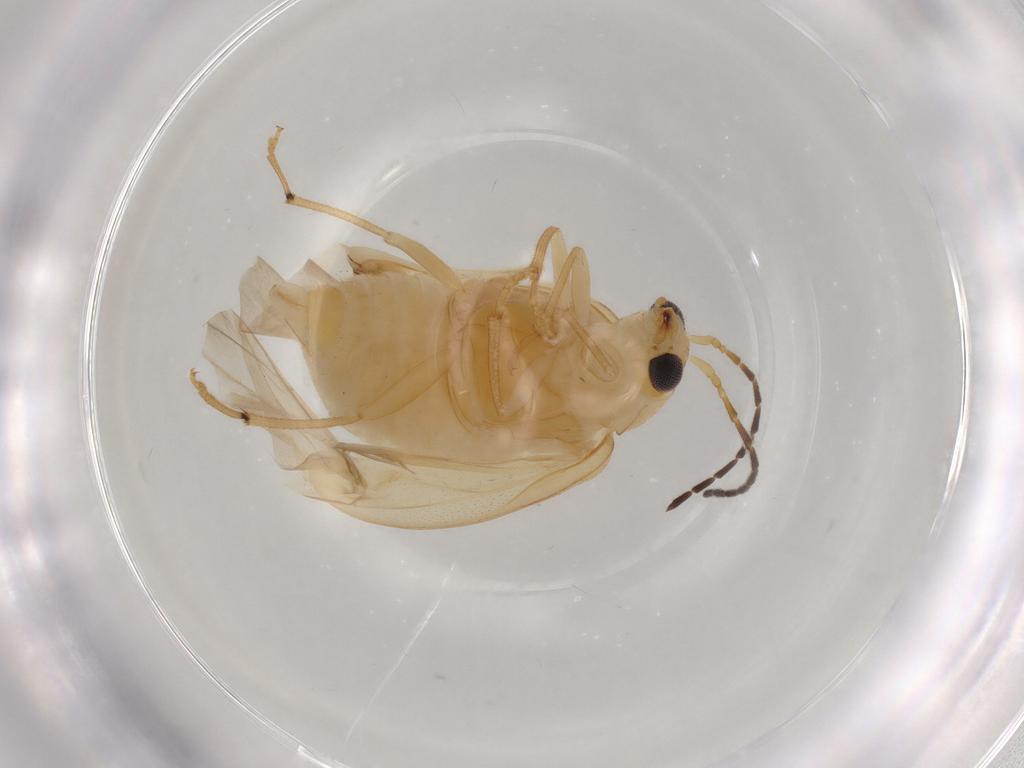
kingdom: Animalia
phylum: Arthropoda
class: Insecta
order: Coleoptera
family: Chrysomelidae
